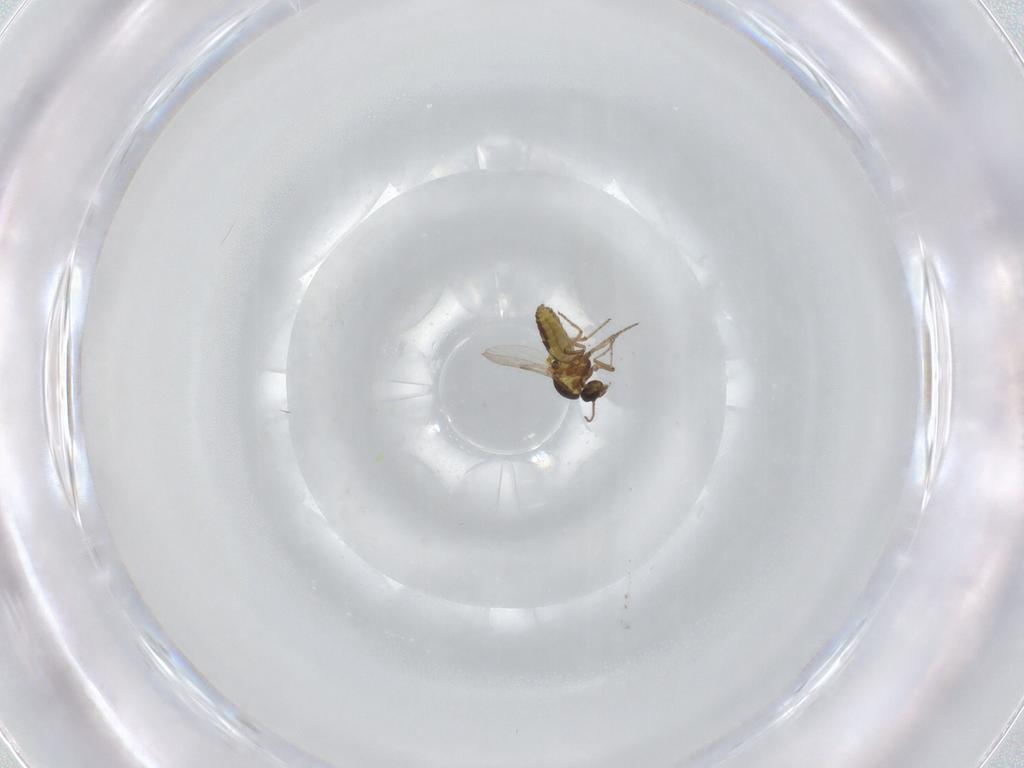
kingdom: Animalia
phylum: Arthropoda
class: Insecta
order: Diptera
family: Ceratopogonidae
